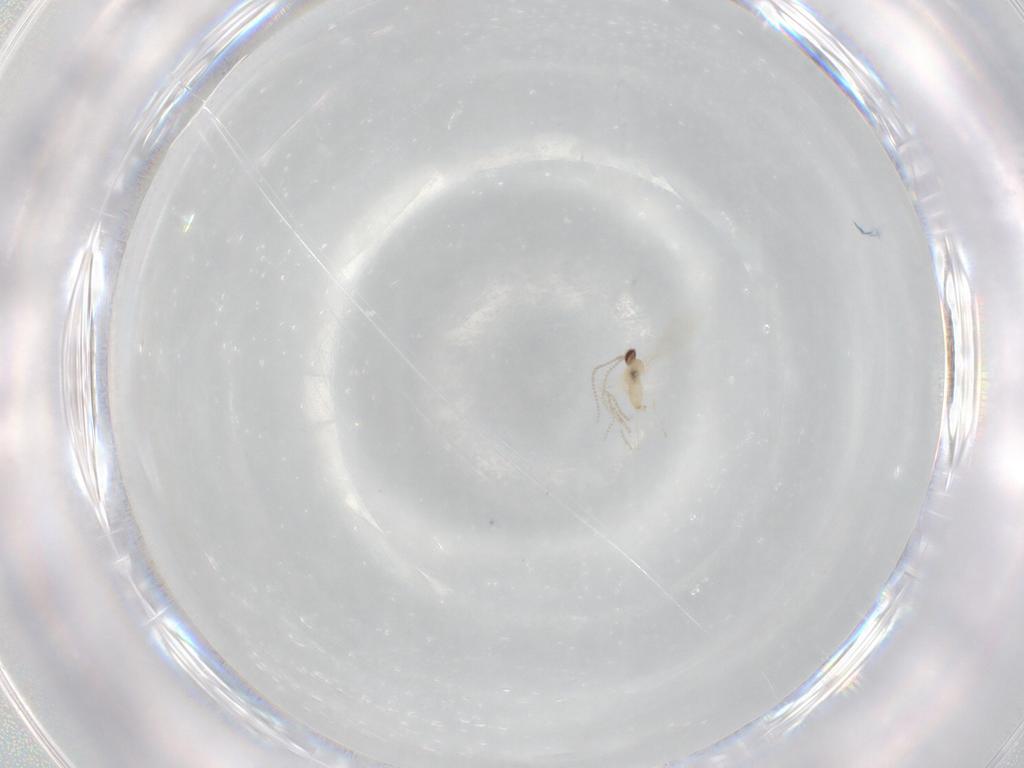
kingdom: Animalia
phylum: Arthropoda
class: Insecta
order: Diptera
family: Cecidomyiidae
